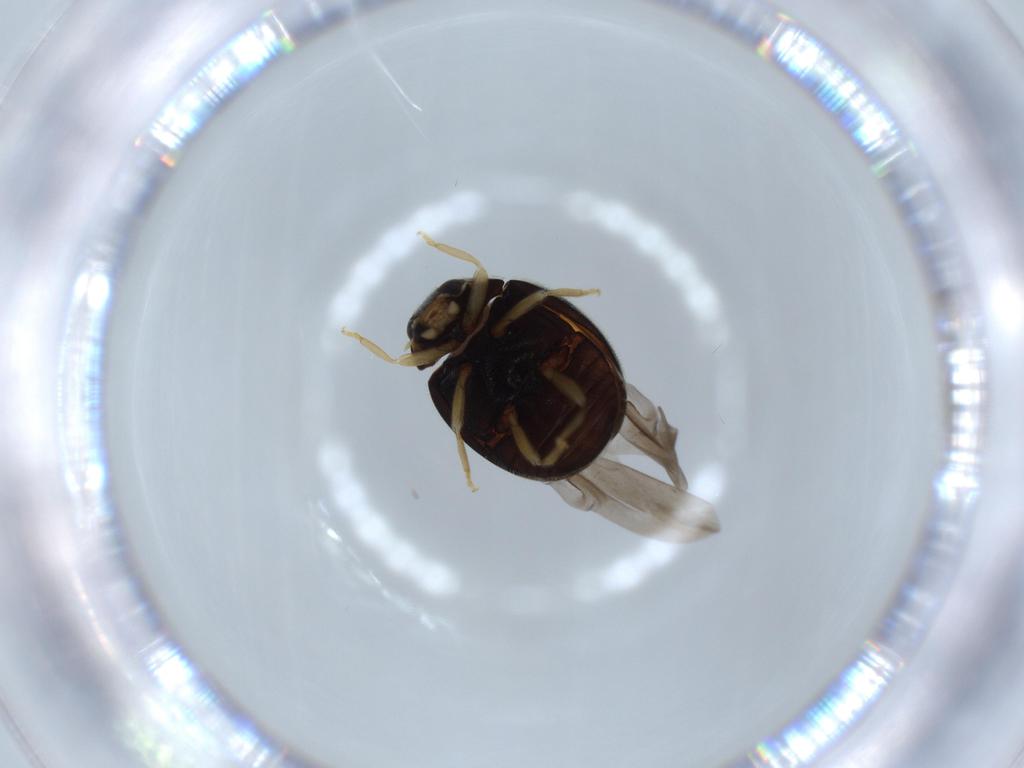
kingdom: Animalia
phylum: Arthropoda
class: Insecta
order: Coleoptera
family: Coccinellidae
